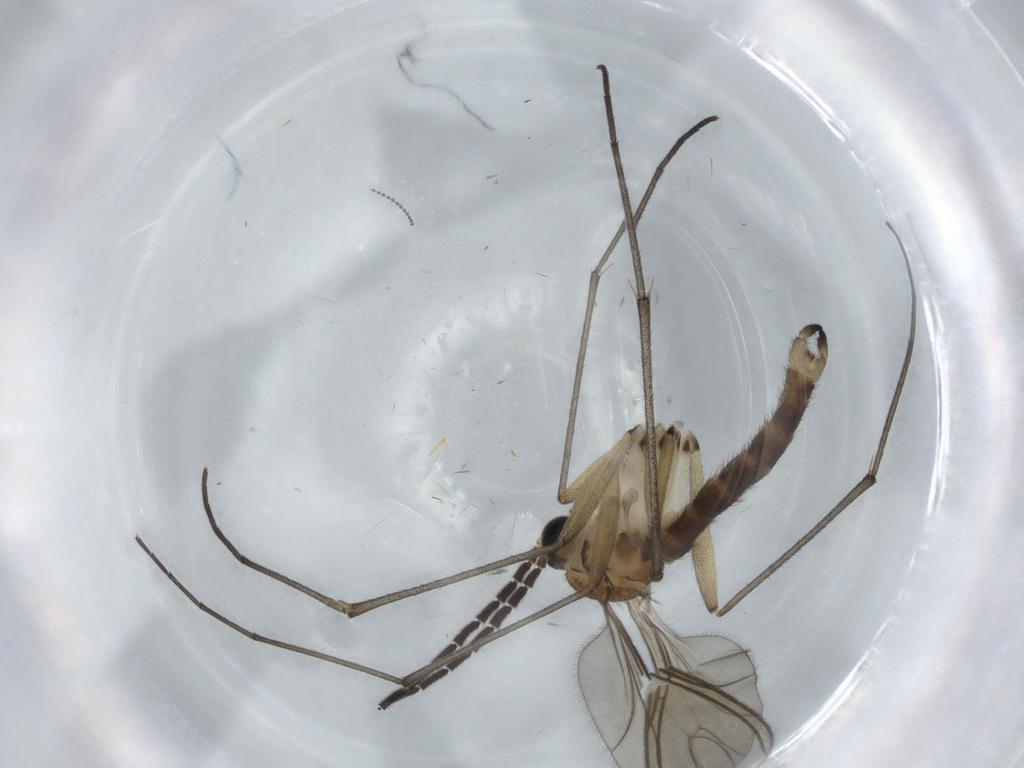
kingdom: Animalia
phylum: Arthropoda
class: Insecta
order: Diptera
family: Sciaridae
